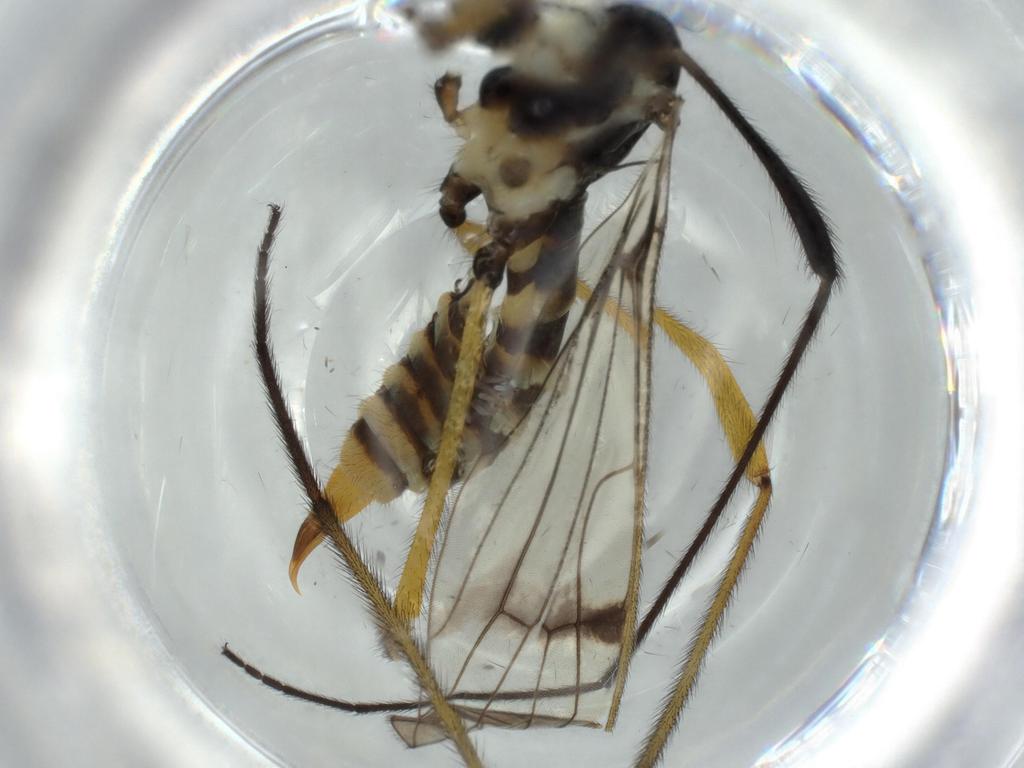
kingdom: Animalia
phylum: Arthropoda
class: Insecta
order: Diptera
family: Limoniidae
